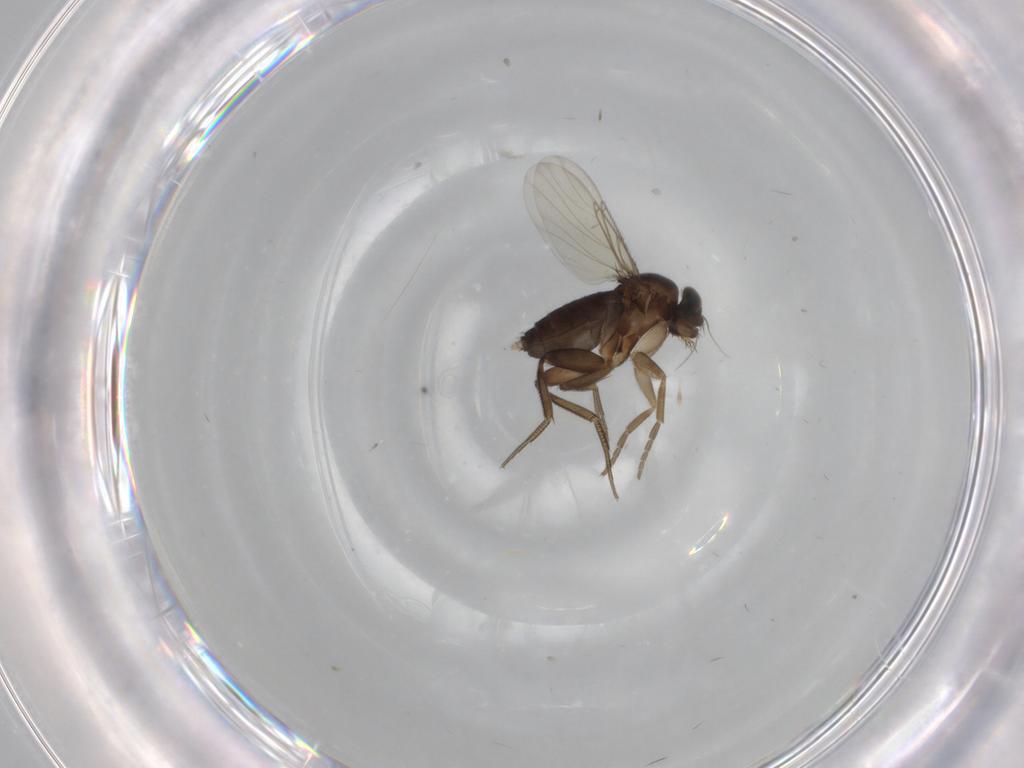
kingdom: Animalia
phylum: Arthropoda
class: Insecta
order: Diptera
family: Phoridae
